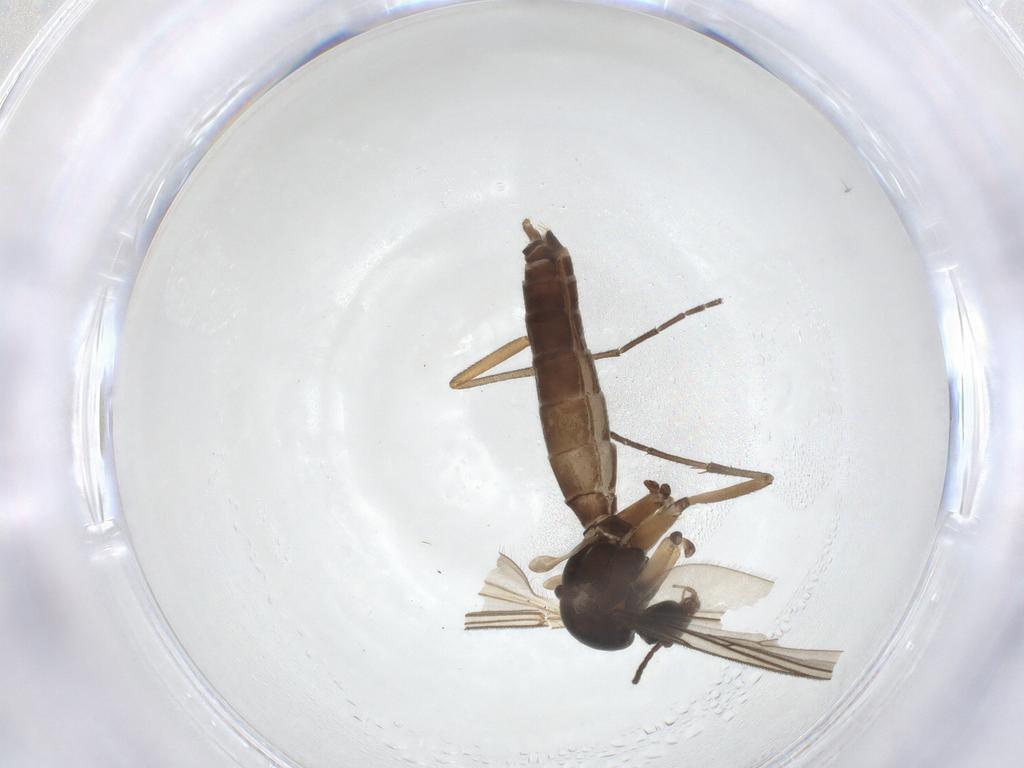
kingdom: Animalia
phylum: Arthropoda
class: Insecta
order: Diptera
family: Mycetophilidae
